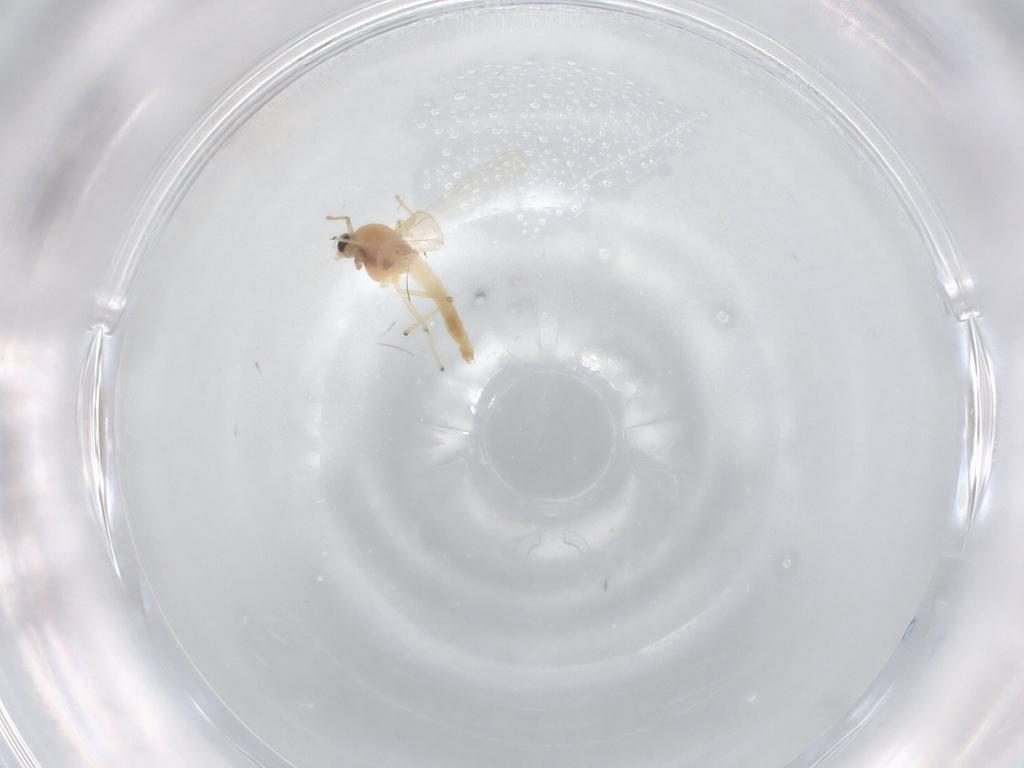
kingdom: Animalia
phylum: Arthropoda
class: Insecta
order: Diptera
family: Chironomidae
